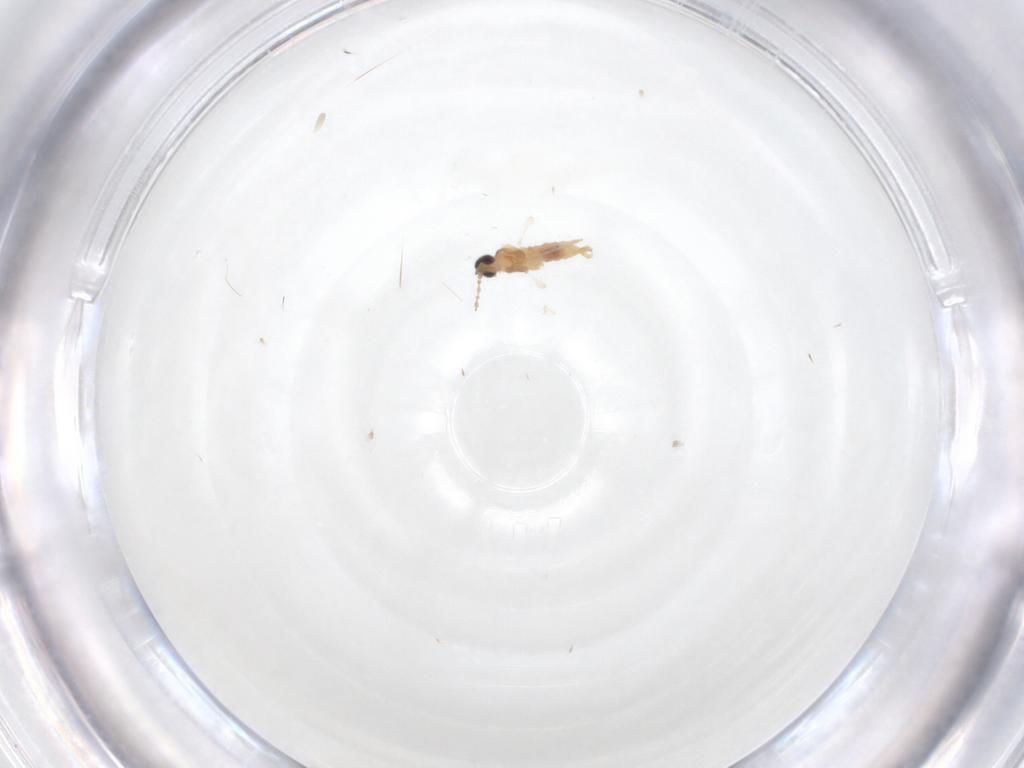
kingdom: Animalia
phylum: Arthropoda
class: Insecta
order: Diptera
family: Cecidomyiidae
